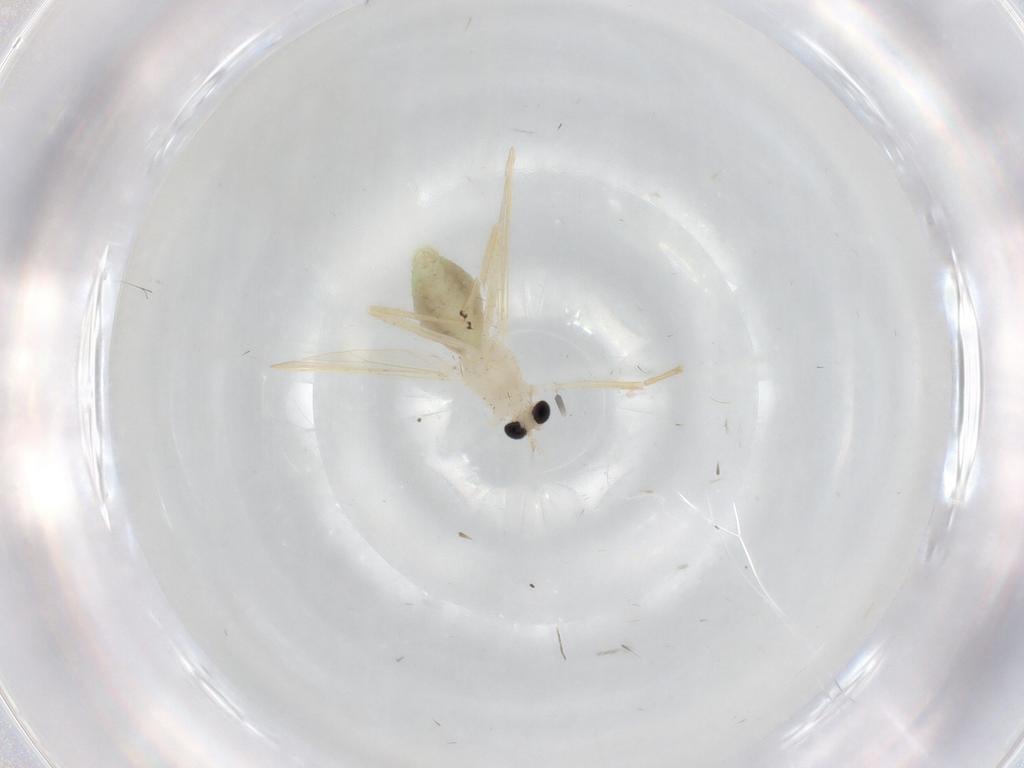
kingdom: Animalia
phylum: Arthropoda
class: Insecta
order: Diptera
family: Chironomidae
